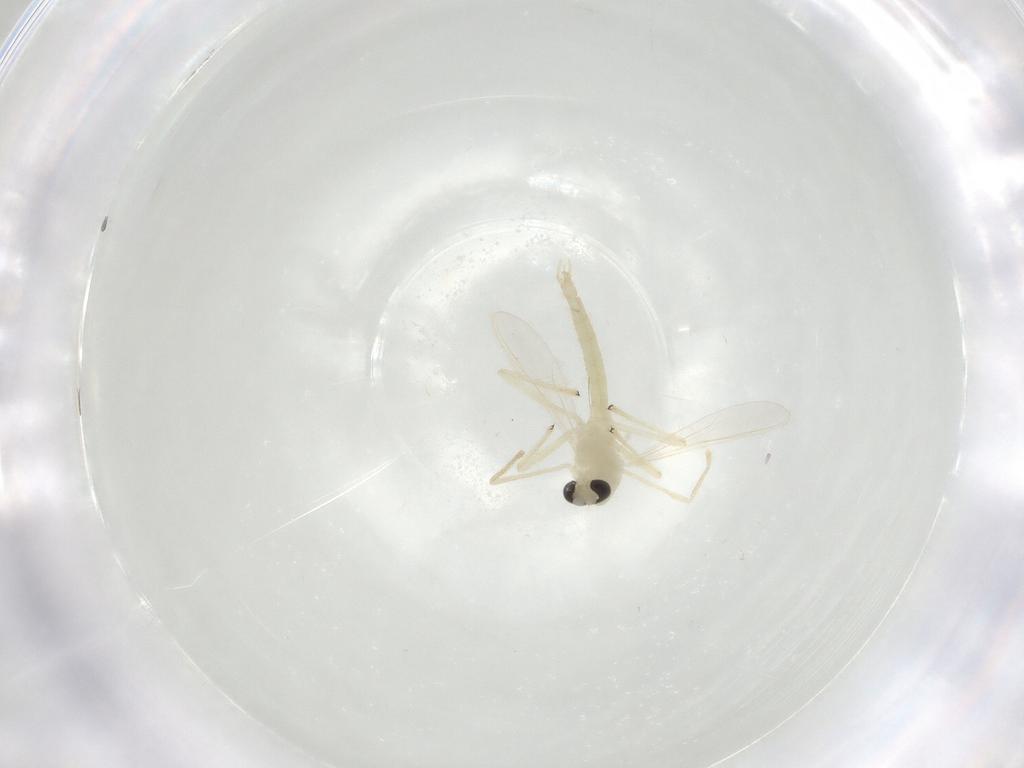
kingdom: Animalia
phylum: Arthropoda
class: Insecta
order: Diptera
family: Chironomidae
